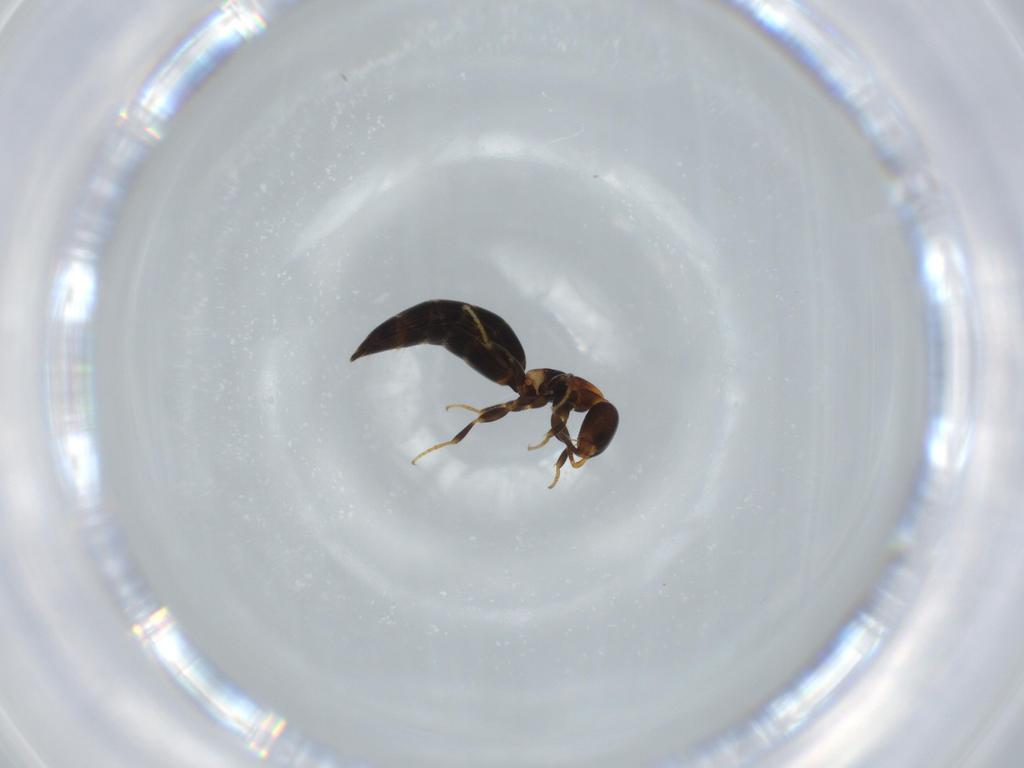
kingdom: Animalia
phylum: Arthropoda
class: Insecta
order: Hymenoptera
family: Bethylidae
